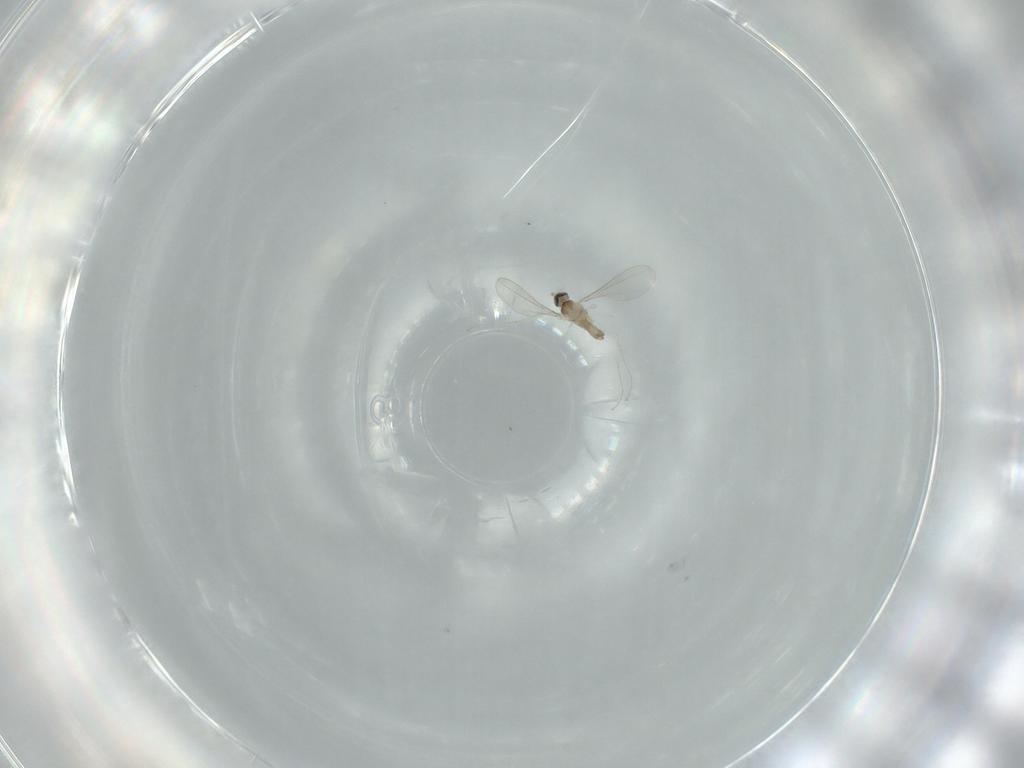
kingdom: Animalia
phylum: Arthropoda
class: Insecta
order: Diptera
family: Cecidomyiidae
